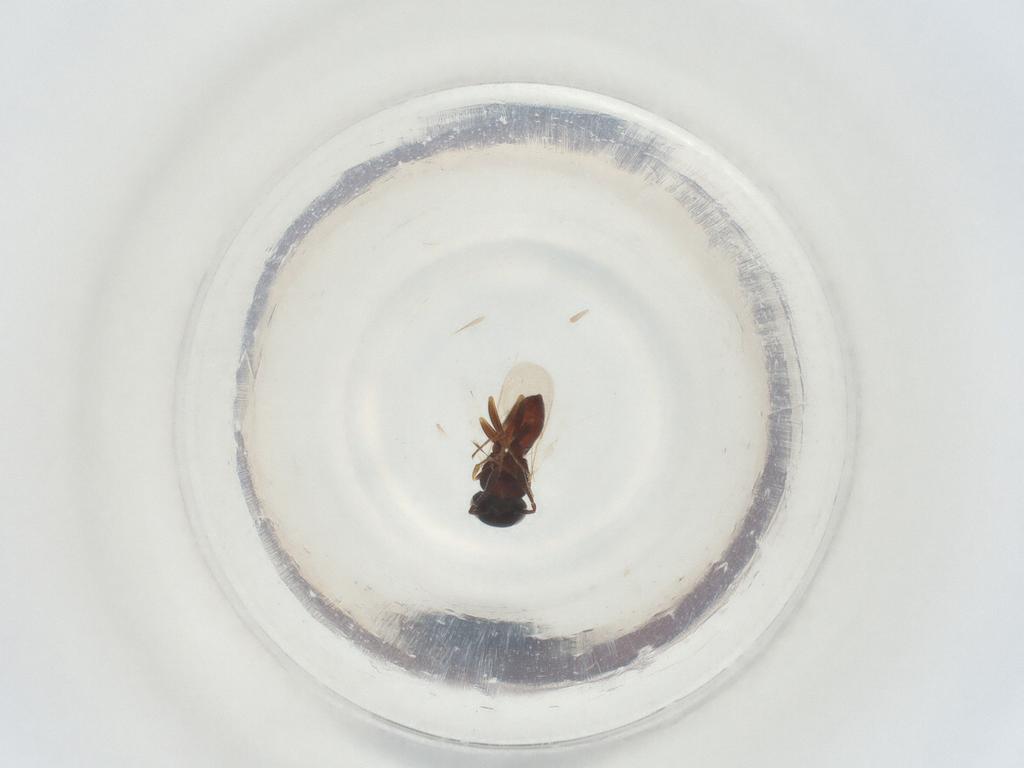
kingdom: Animalia
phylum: Arthropoda
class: Insecta
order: Hymenoptera
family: Scelionidae
